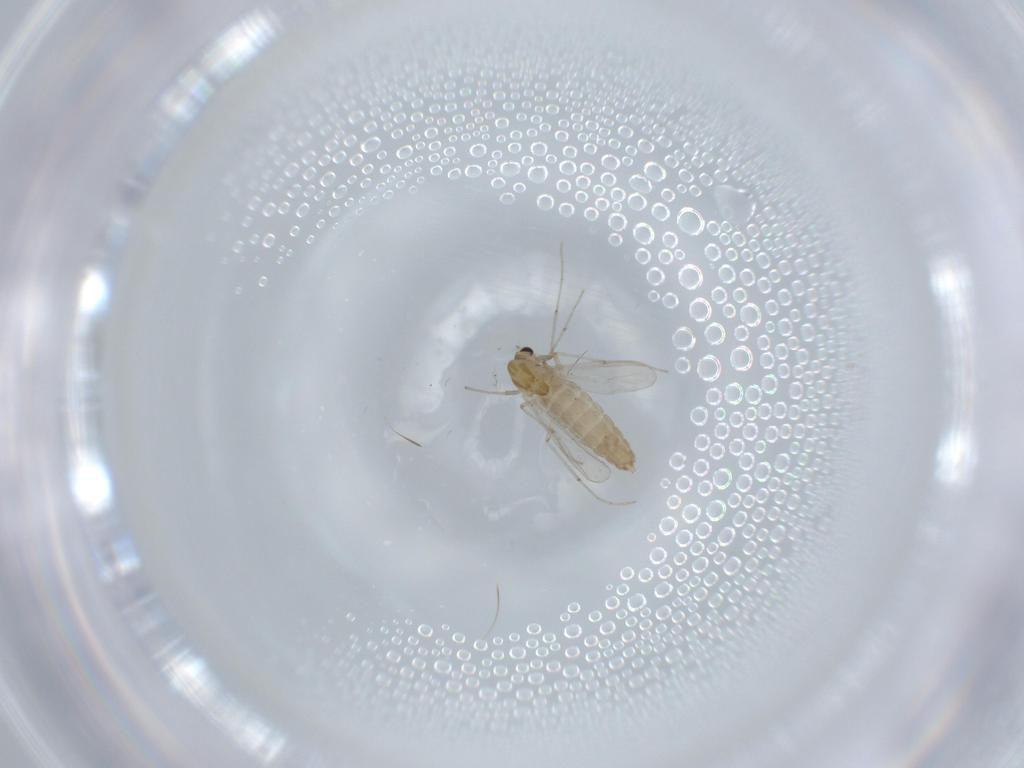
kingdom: Animalia
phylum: Arthropoda
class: Insecta
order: Diptera
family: Chironomidae
